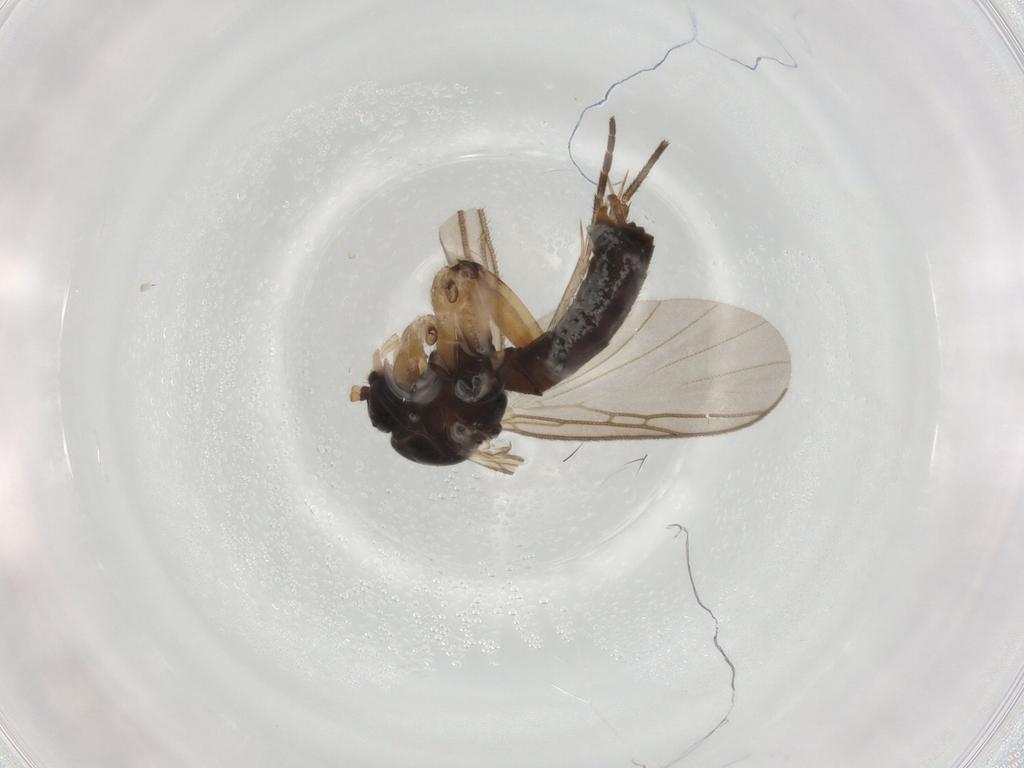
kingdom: Animalia
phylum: Arthropoda
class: Insecta
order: Diptera
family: Chironomidae
